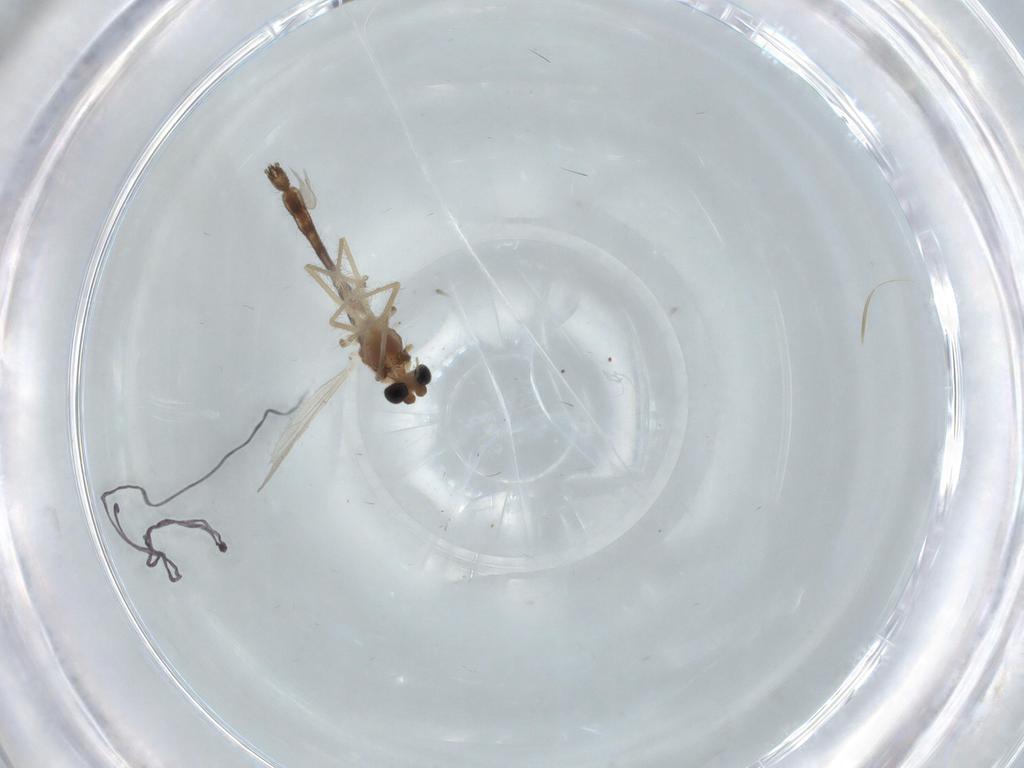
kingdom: Animalia
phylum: Arthropoda
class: Insecta
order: Diptera
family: Chironomidae
